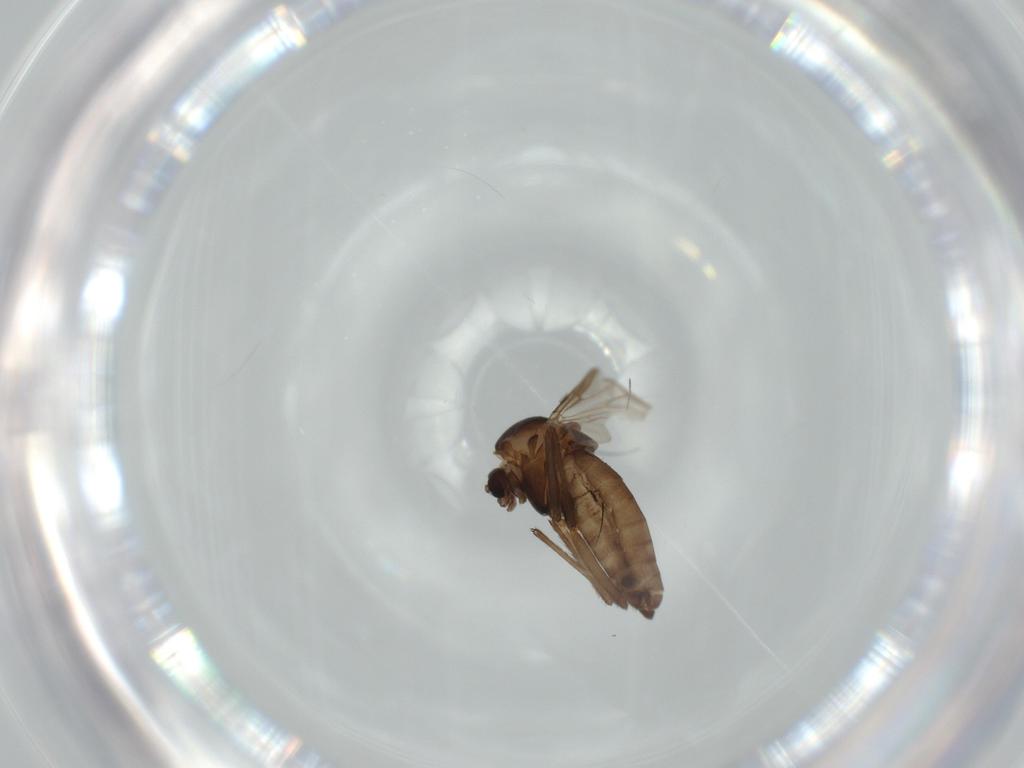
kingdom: Animalia
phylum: Arthropoda
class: Insecta
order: Diptera
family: Chironomidae
